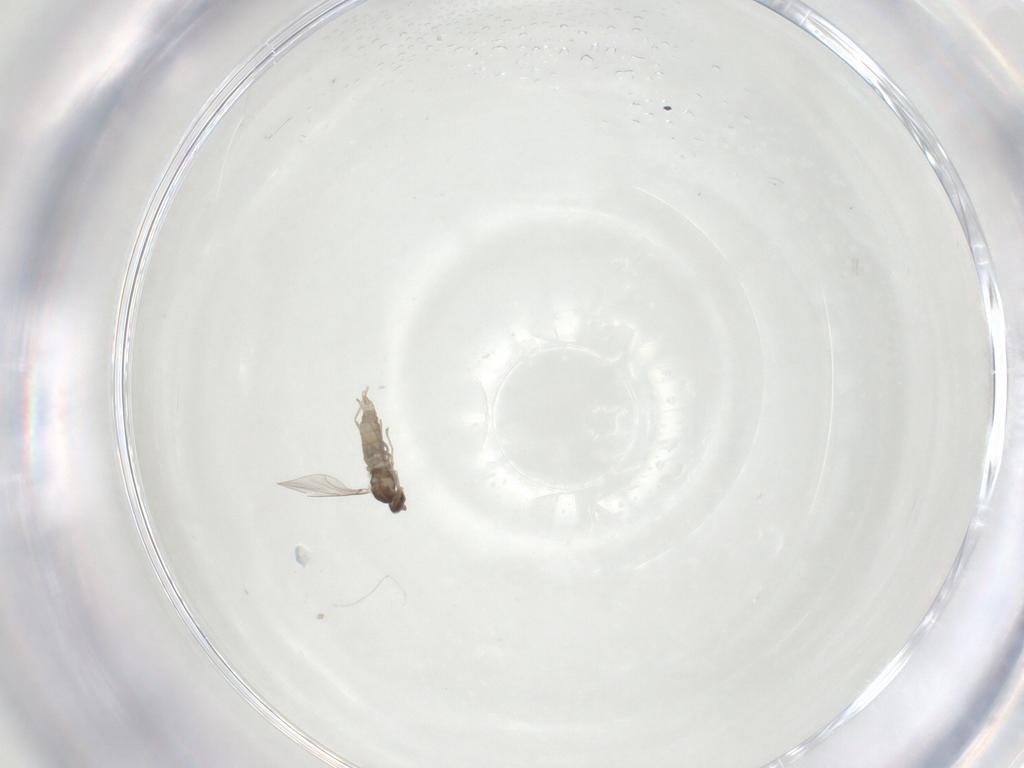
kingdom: Animalia
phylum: Arthropoda
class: Insecta
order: Diptera
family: Cecidomyiidae
